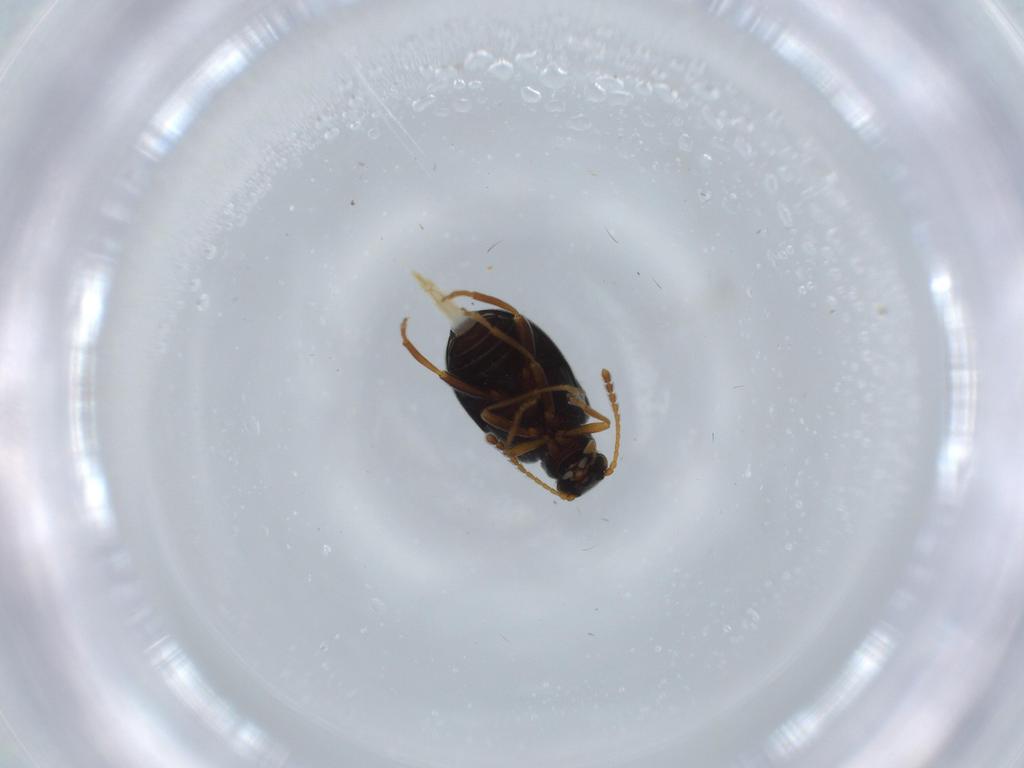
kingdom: Animalia
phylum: Arthropoda
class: Insecta
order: Coleoptera
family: Aderidae
